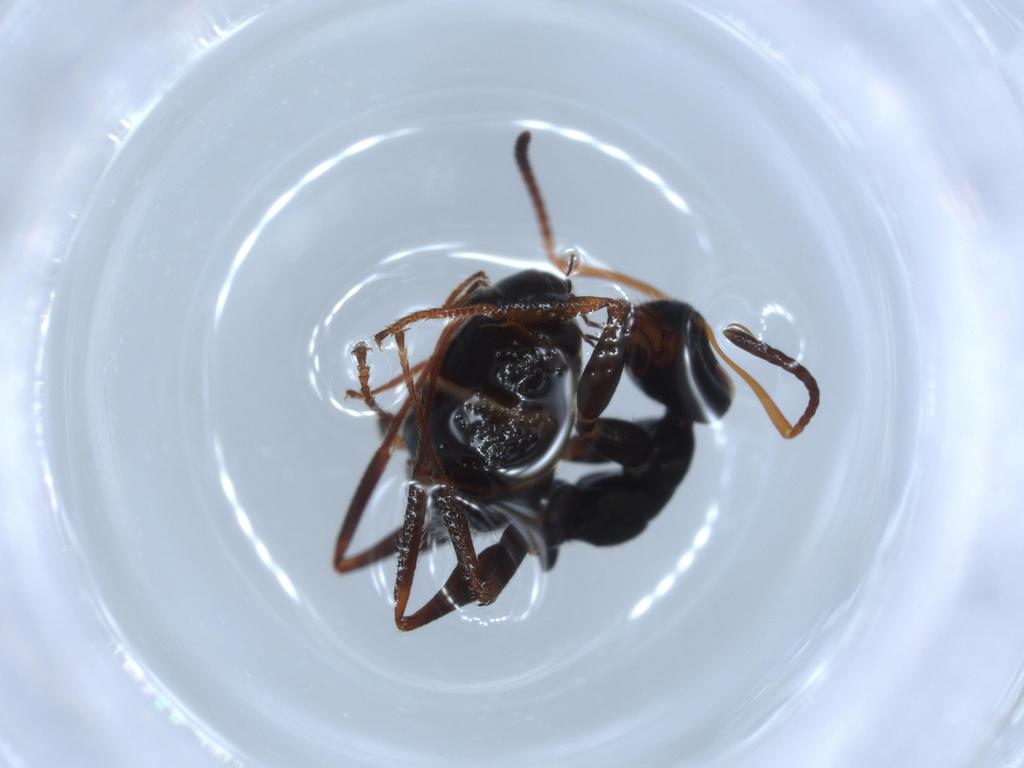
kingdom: Animalia
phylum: Arthropoda
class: Insecta
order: Hymenoptera
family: Formicidae
